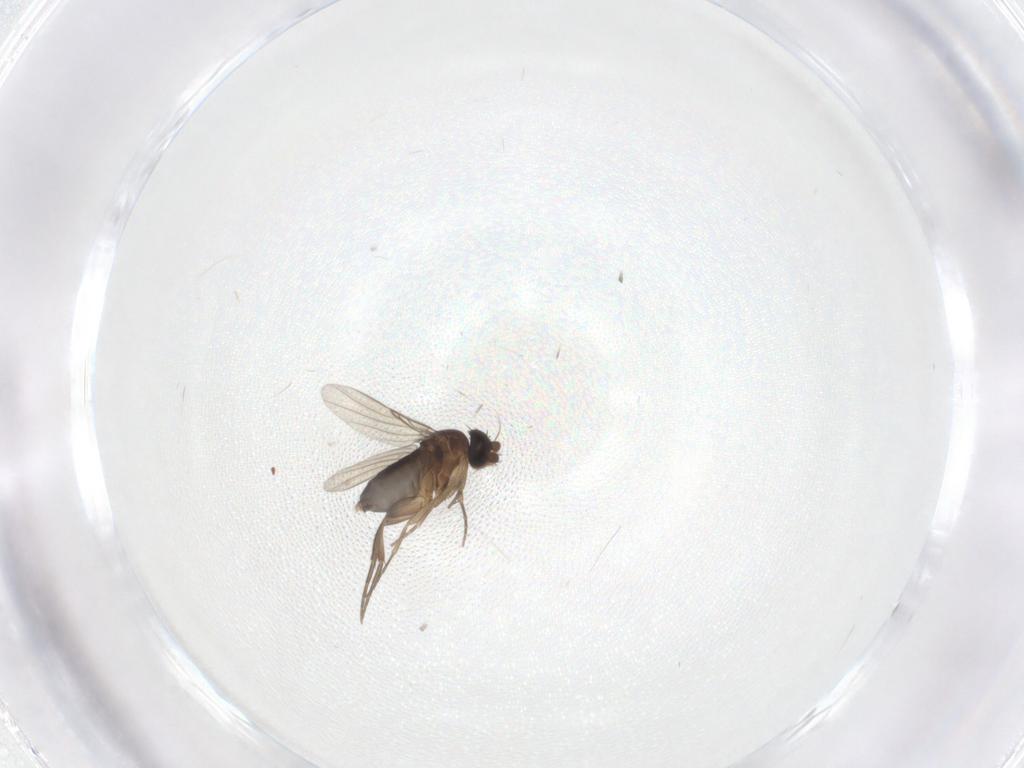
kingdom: Animalia
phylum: Arthropoda
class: Insecta
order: Diptera
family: Phoridae
